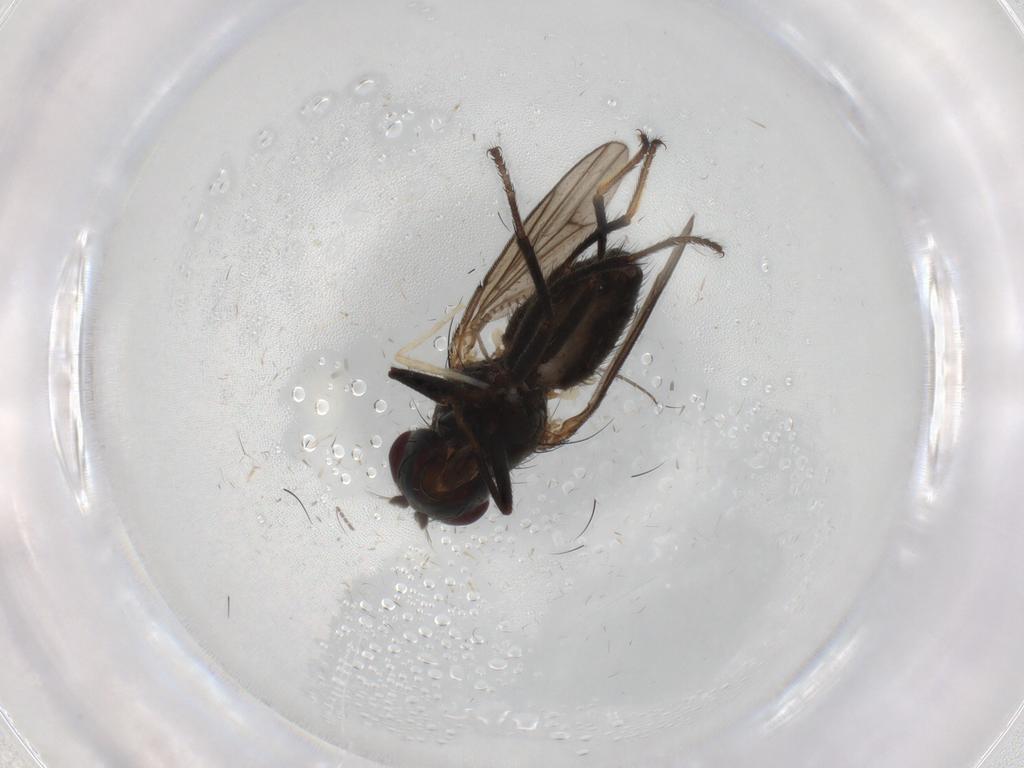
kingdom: Animalia
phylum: Arthropoda
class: Insecta
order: Diptera
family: Ephydridae
